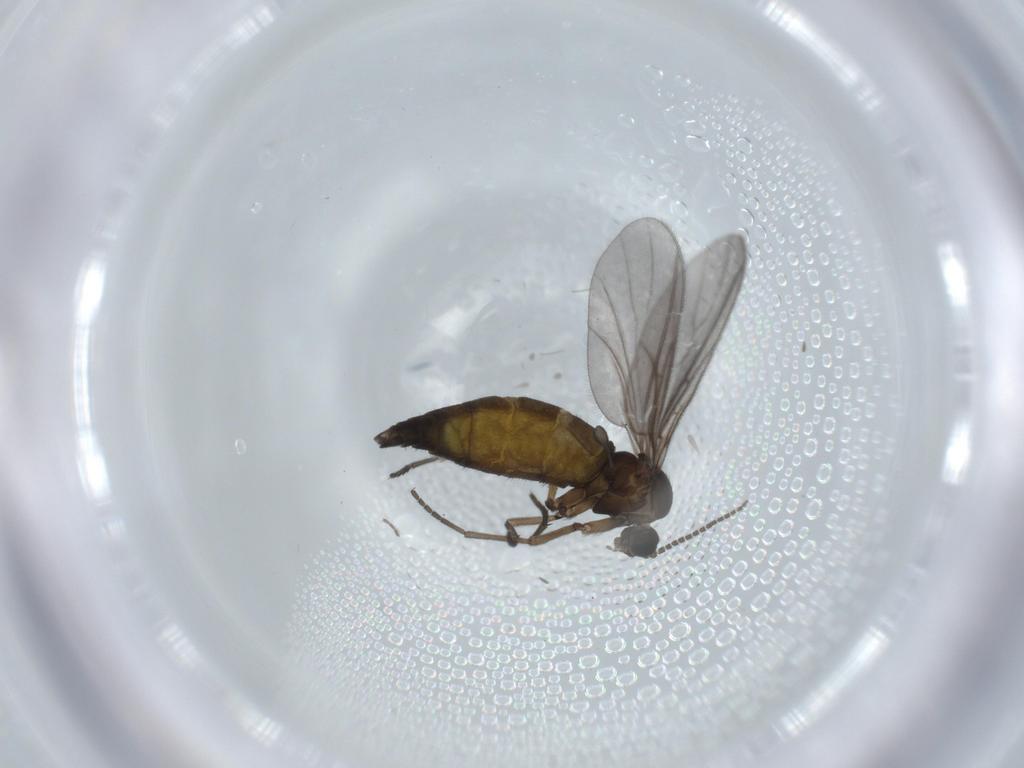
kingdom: Animalia
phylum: Arthropoda
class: Insecta
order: Diptera
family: Sciaridae
